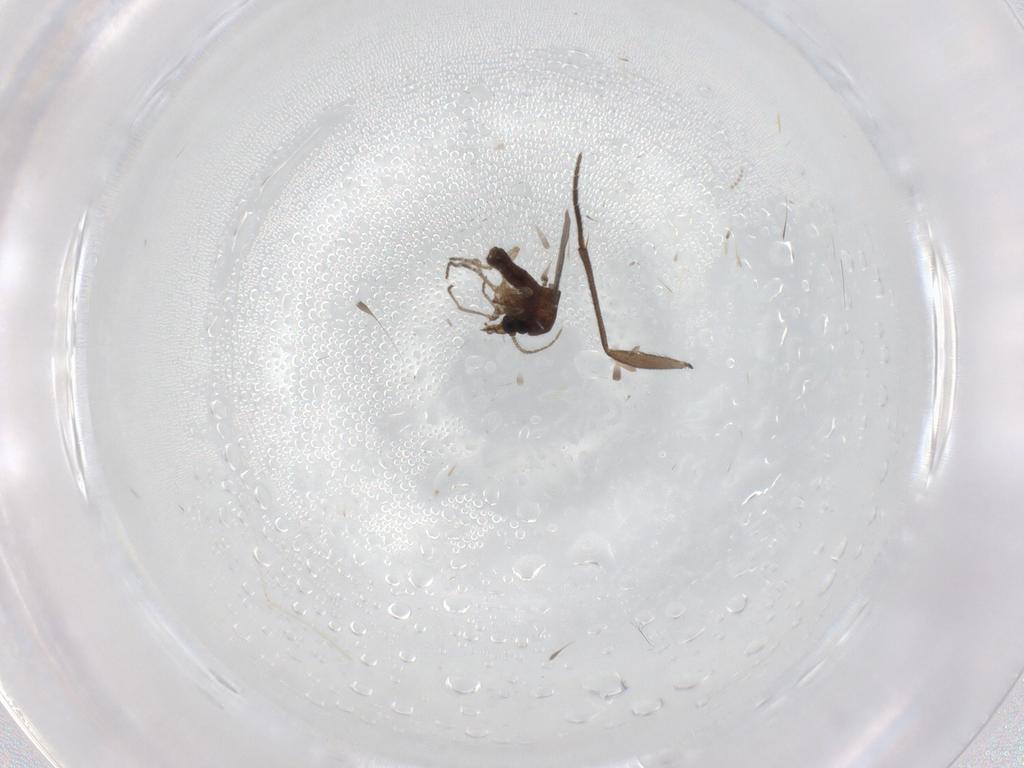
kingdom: Animalia
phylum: Arthropoda
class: Insecta
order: Diptera
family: Ceratopogonidae
